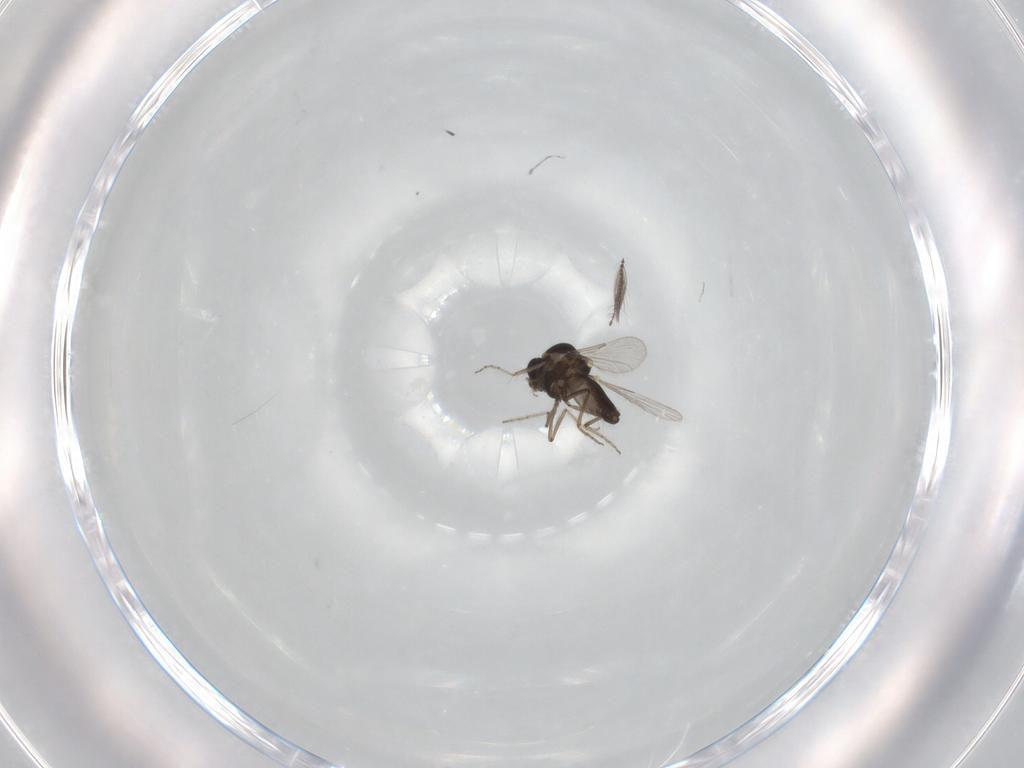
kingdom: Animalia
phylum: Arthropoda
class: Insecta
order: Diptera
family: Ceratopogonidae
